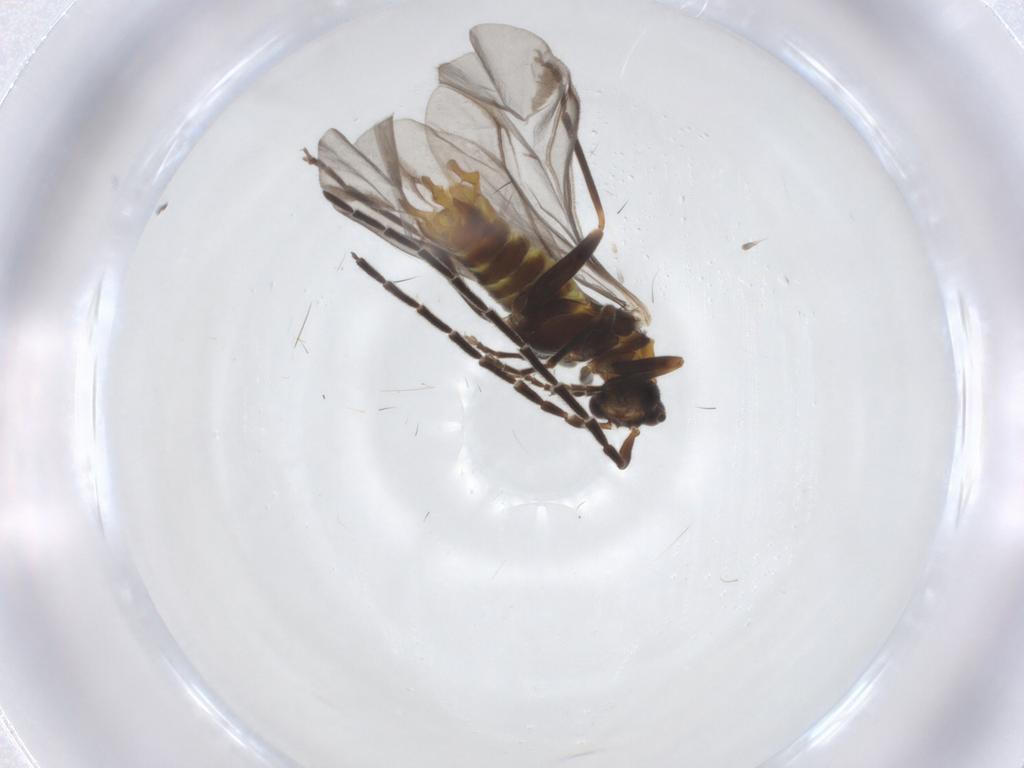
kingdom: Animalia
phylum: Arthropoda
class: Insecta
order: Coleoptera
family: Cantharidae
